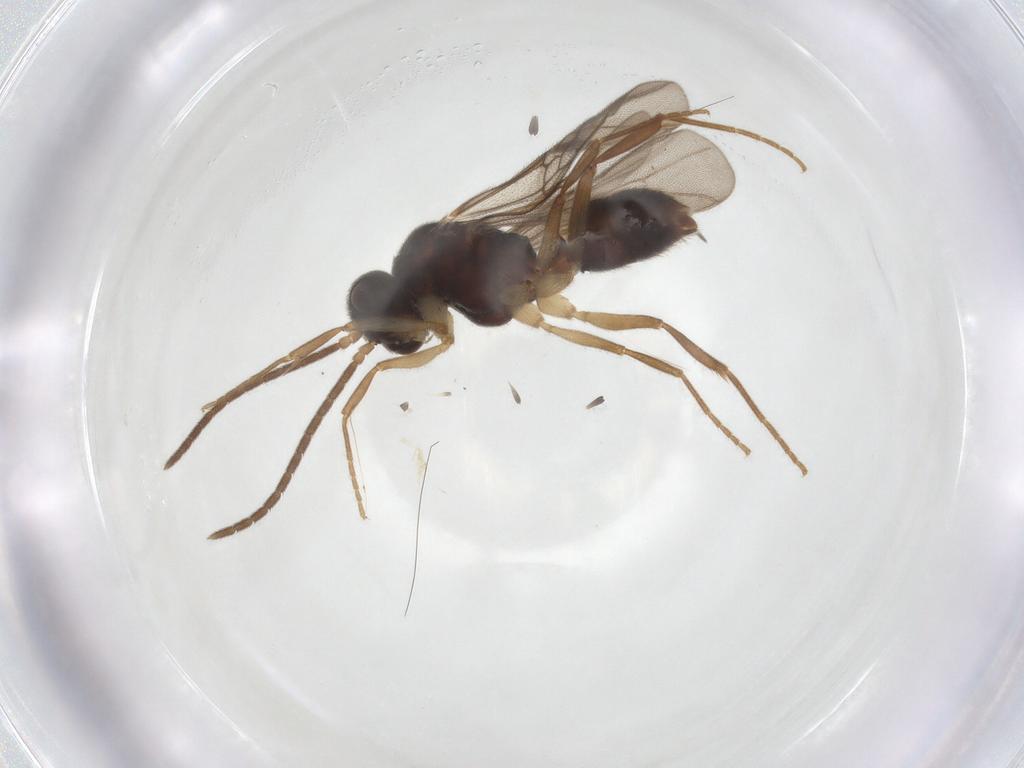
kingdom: Animalia
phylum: Arthropoda
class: Insecta
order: Hymenoptera
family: Formicidae
